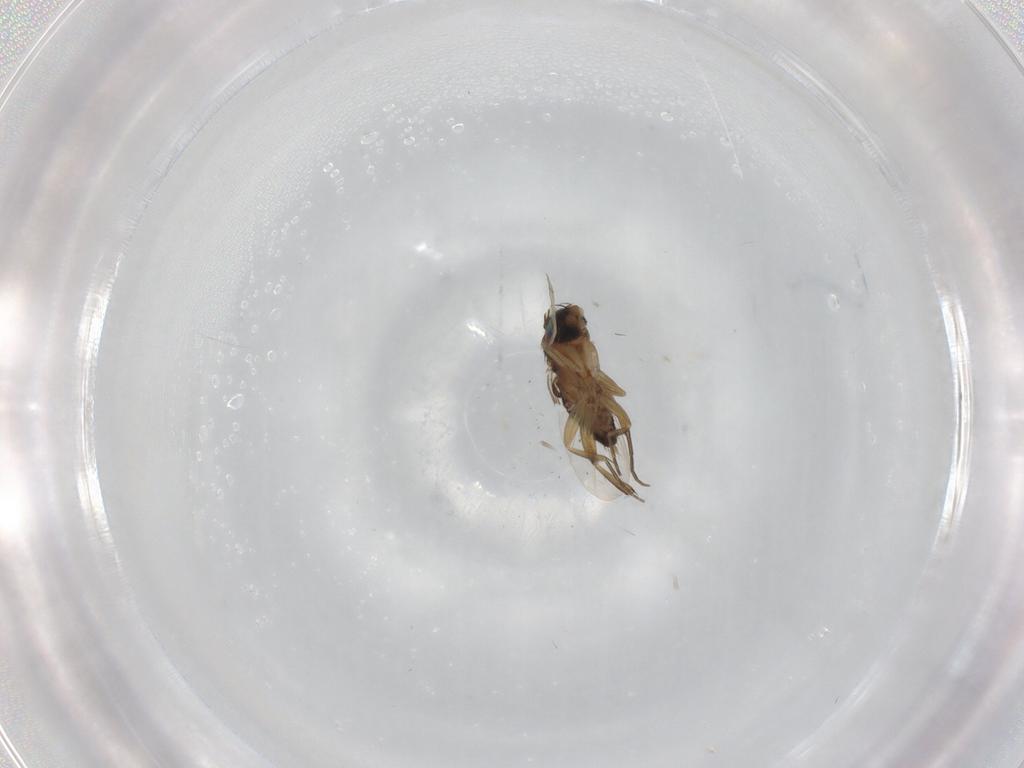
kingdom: Animalia
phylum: Arthropoda
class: Insecta
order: Diptera
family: Phoridae
